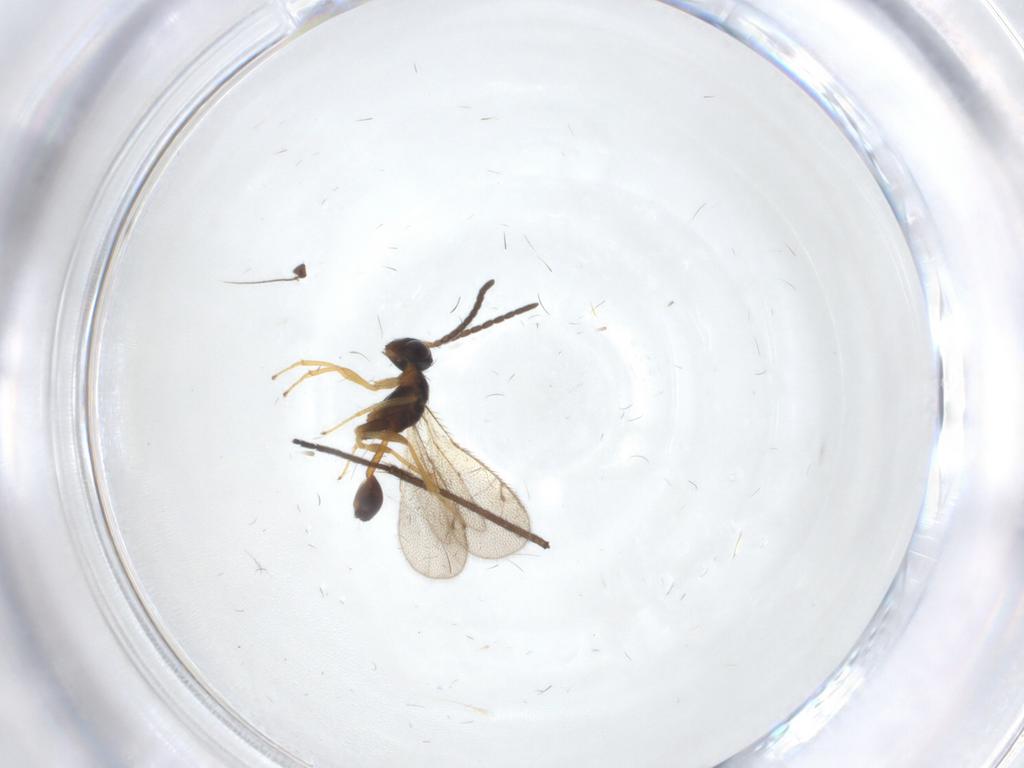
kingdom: Animalia
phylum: Arthropoda
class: Insecta
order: Hymenoptera
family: Diparidae
